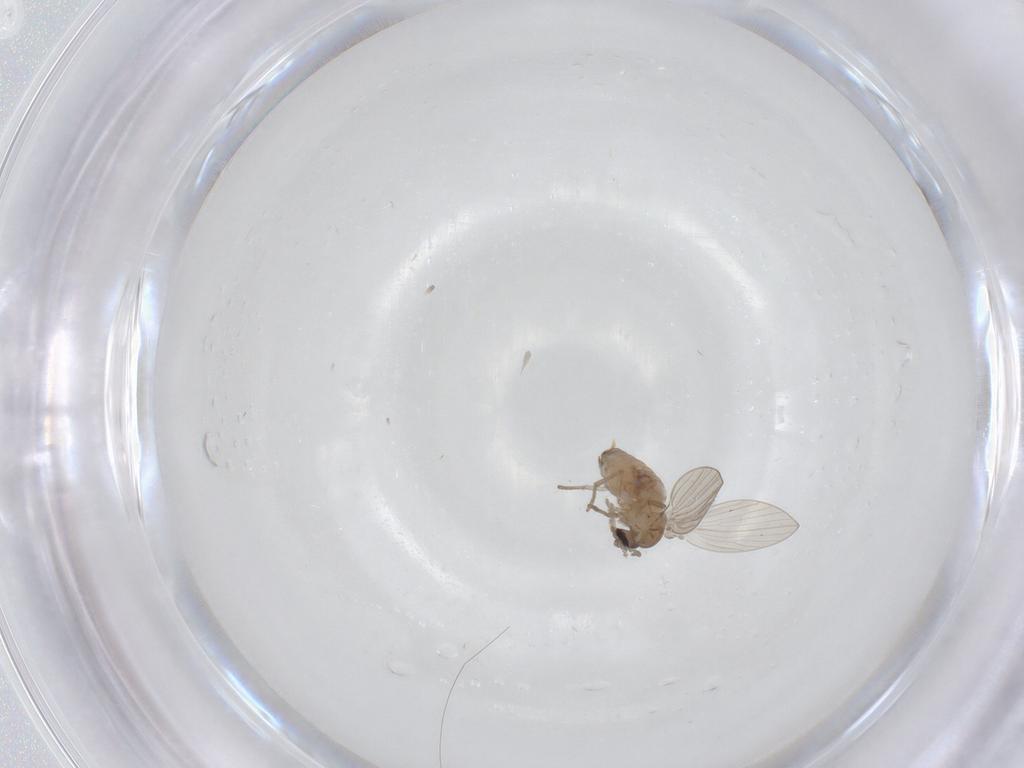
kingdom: Animalia
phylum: Arthropoda
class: Insecta
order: Diptera
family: Psychodidae
